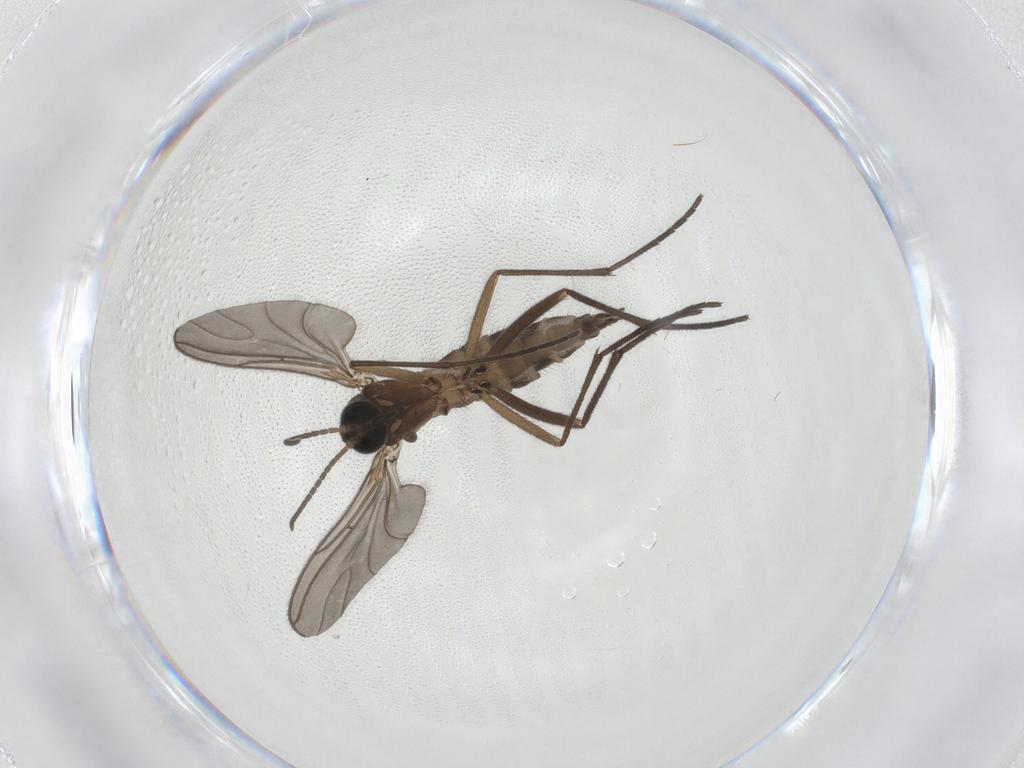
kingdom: Animalia
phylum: Arthropoda
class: Insecta
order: Diptera
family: Sciaridae
